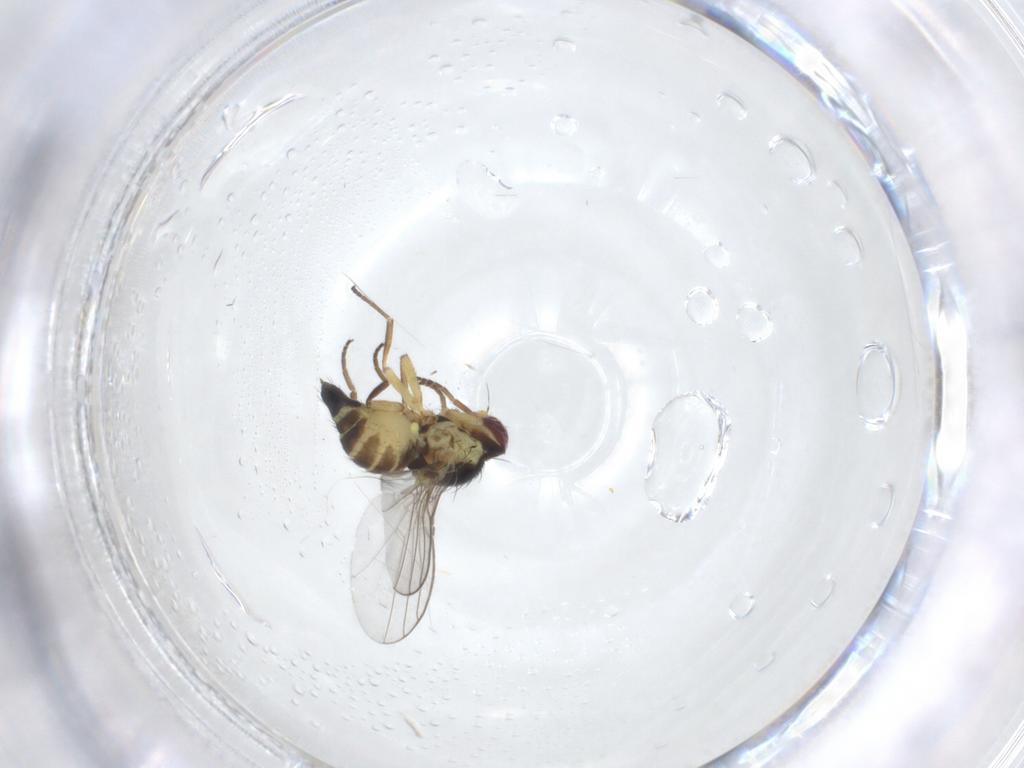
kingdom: Animalia
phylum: Arthropoda
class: Insecta
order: Diptera
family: Agromyzidae
